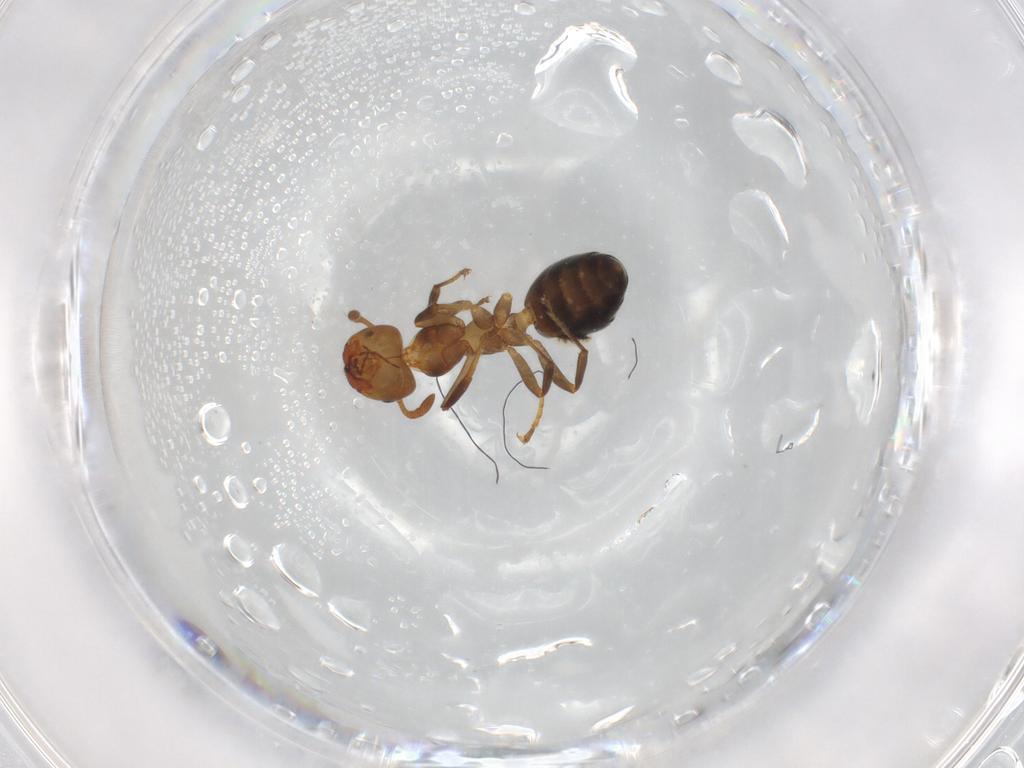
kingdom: Animalia
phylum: Arthropoda
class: Insecta
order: Hymenoptera
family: Formicidae
